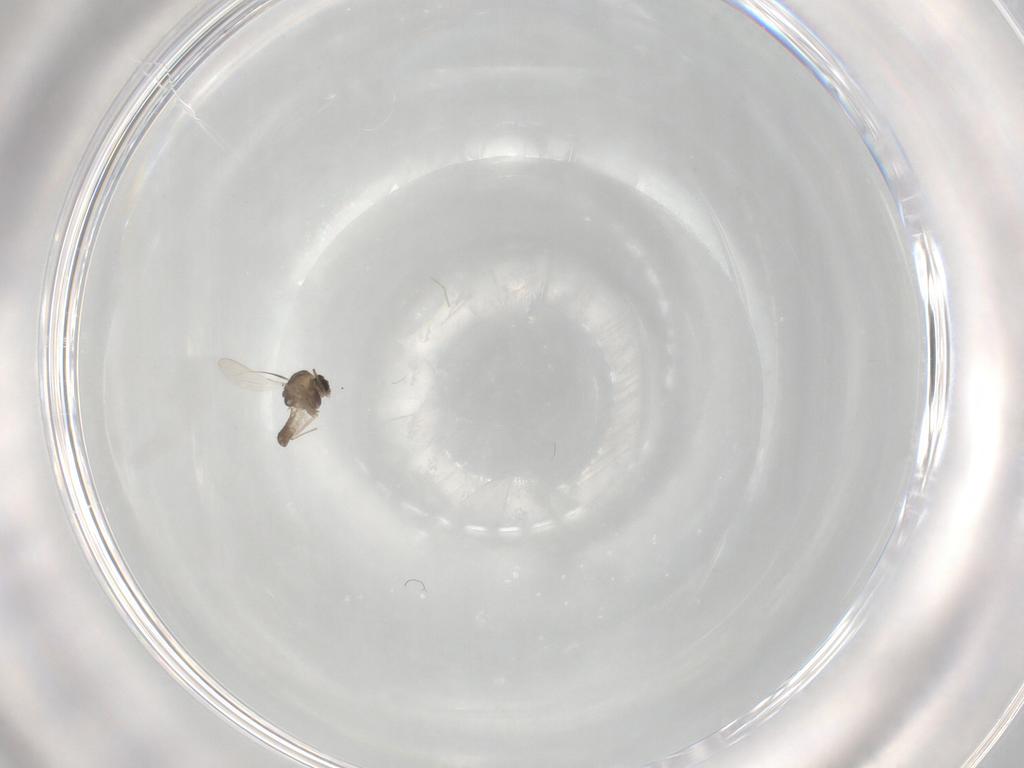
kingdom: Animalia
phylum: Arthropoda
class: Insecta
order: Diptera
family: Chironomidae
